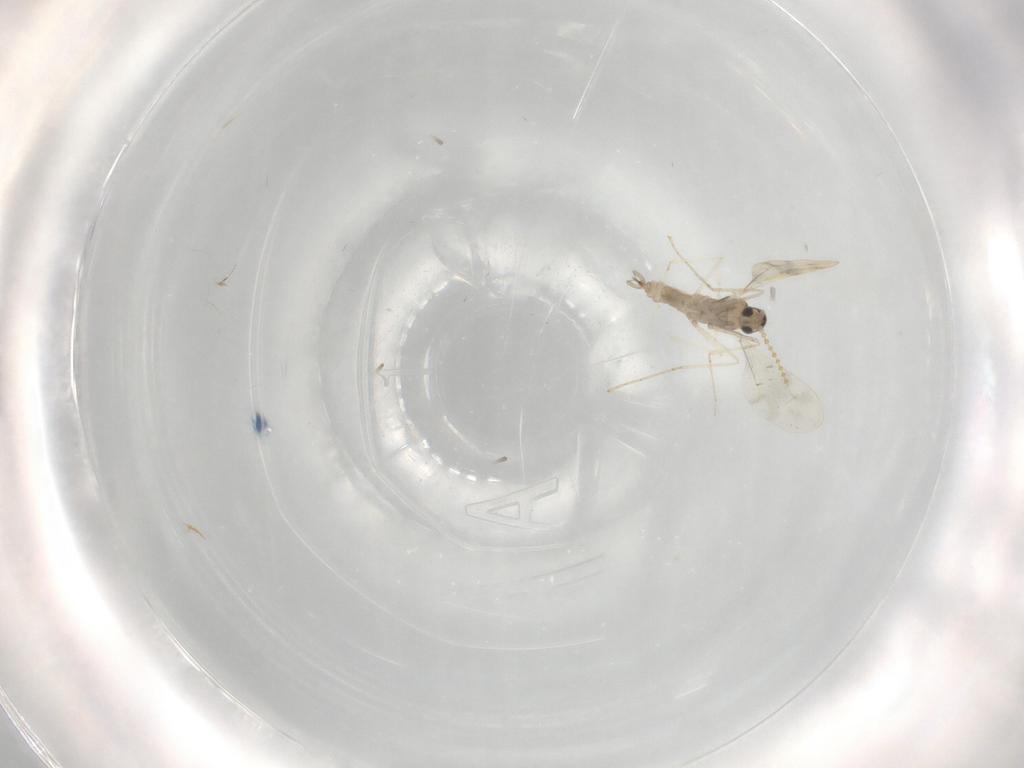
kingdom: Animalia
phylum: Arthropoda
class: Insecta
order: Diptera
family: Cecidomyiidae
